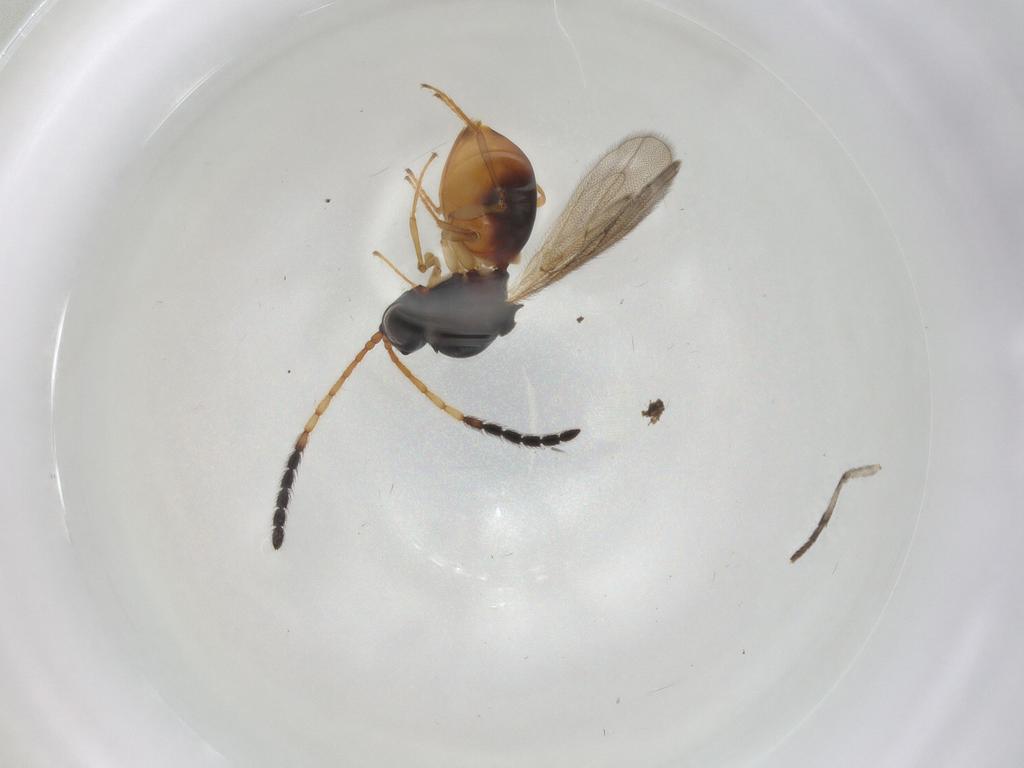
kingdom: Animalia
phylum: Arthropoda
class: Insecta
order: Hymenoptera
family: Figitidae
